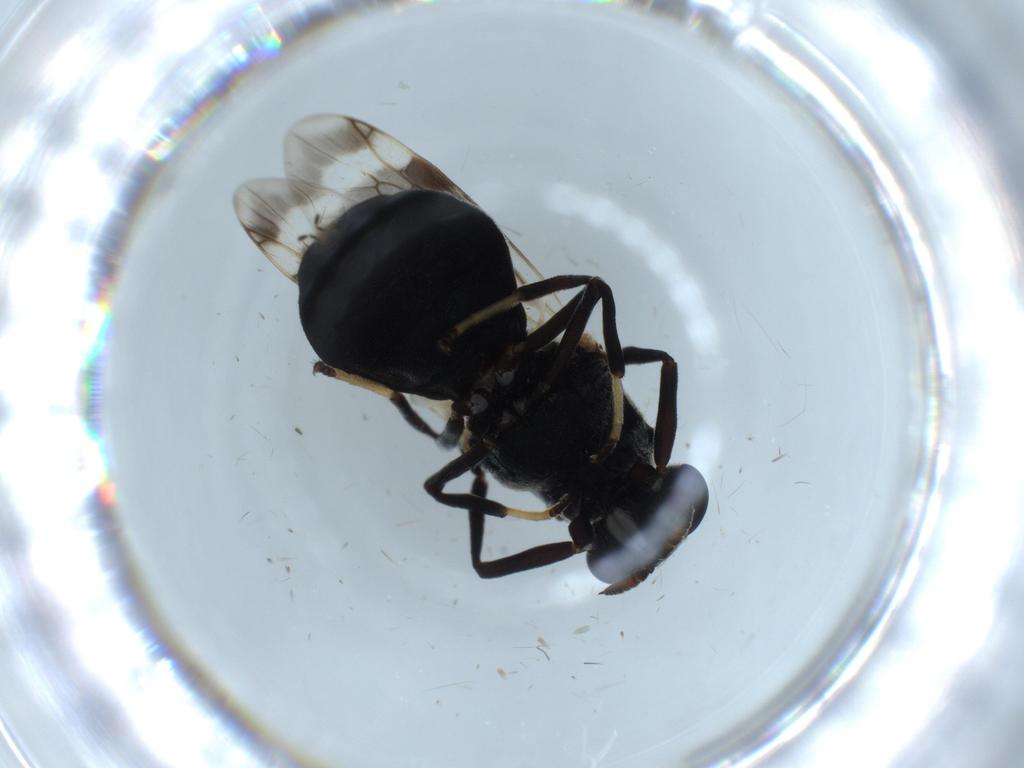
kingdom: Animalia
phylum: Arthropoda
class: Insecta
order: Diptera
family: Stratiomyidae
